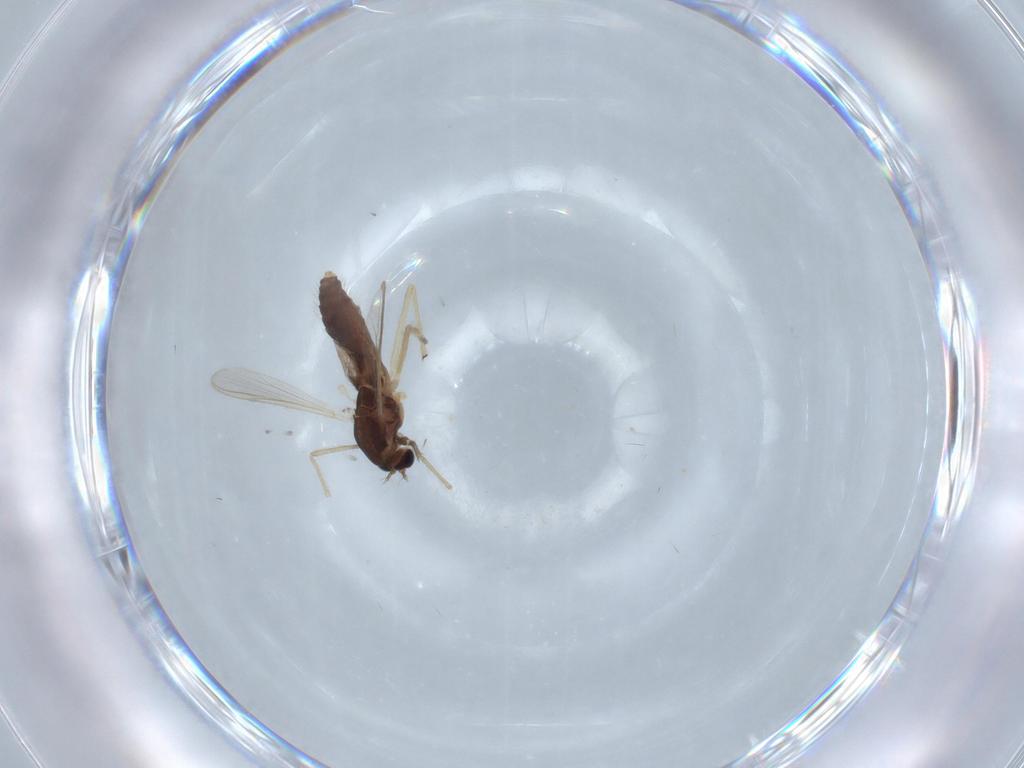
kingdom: Animalia
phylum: Arthropoda
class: Insecta
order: Diptera
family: Chironomidae
